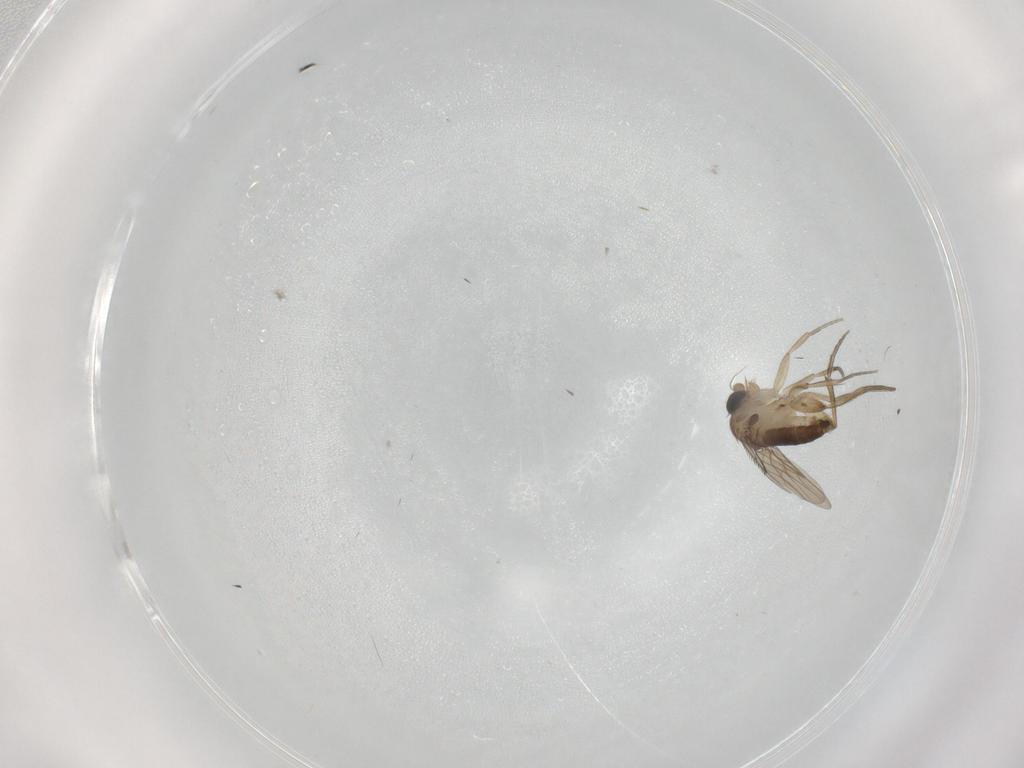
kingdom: Animalia
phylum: Arthropoda
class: Insecta
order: Diptera
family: Phoridae
